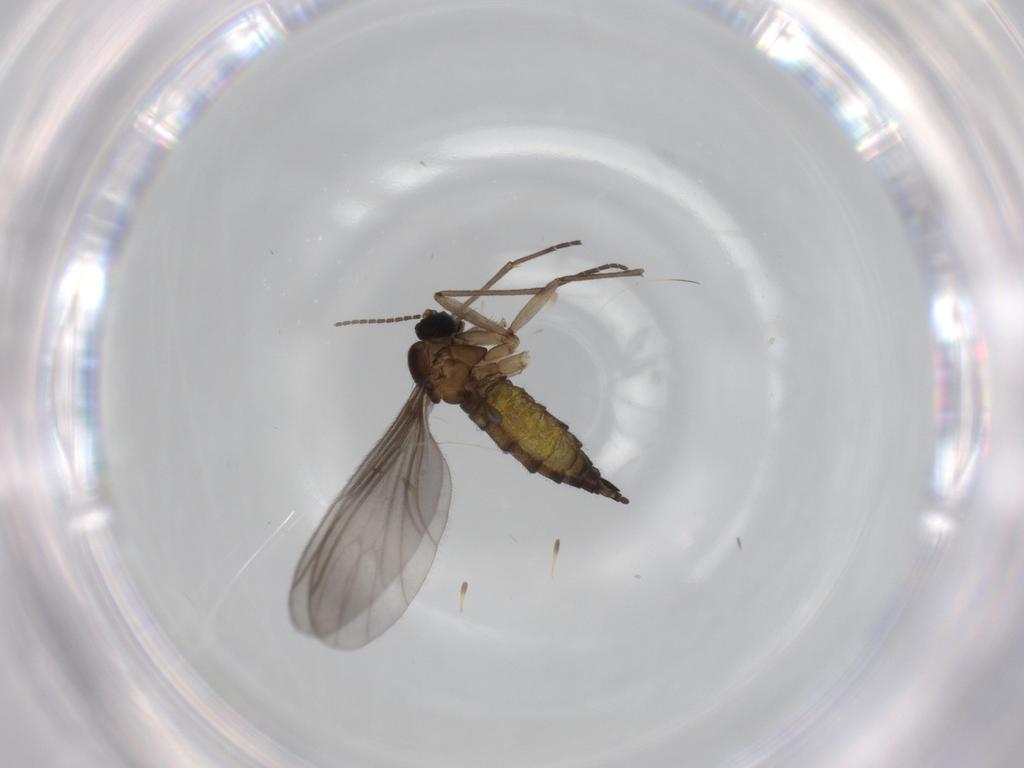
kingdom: Animalia
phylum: Arthropoda
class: Insecta
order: Diptera
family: Sciaridae
